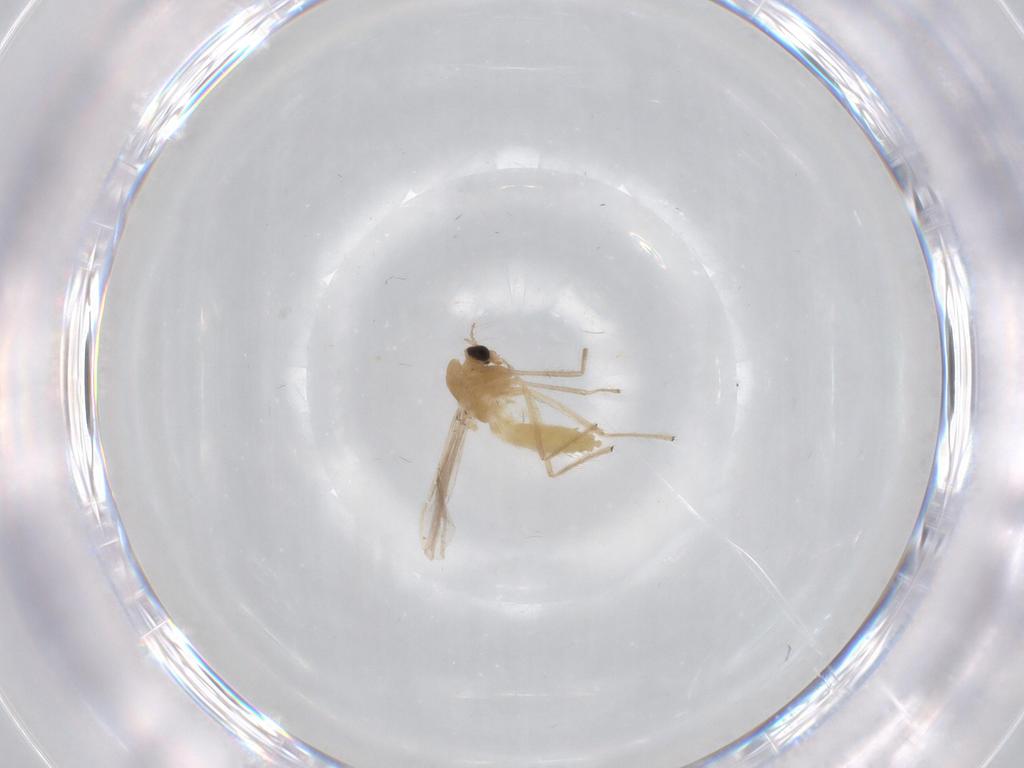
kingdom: Animalia
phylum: Arthropoda
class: Insecta
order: Diptera
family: Chironomidae
